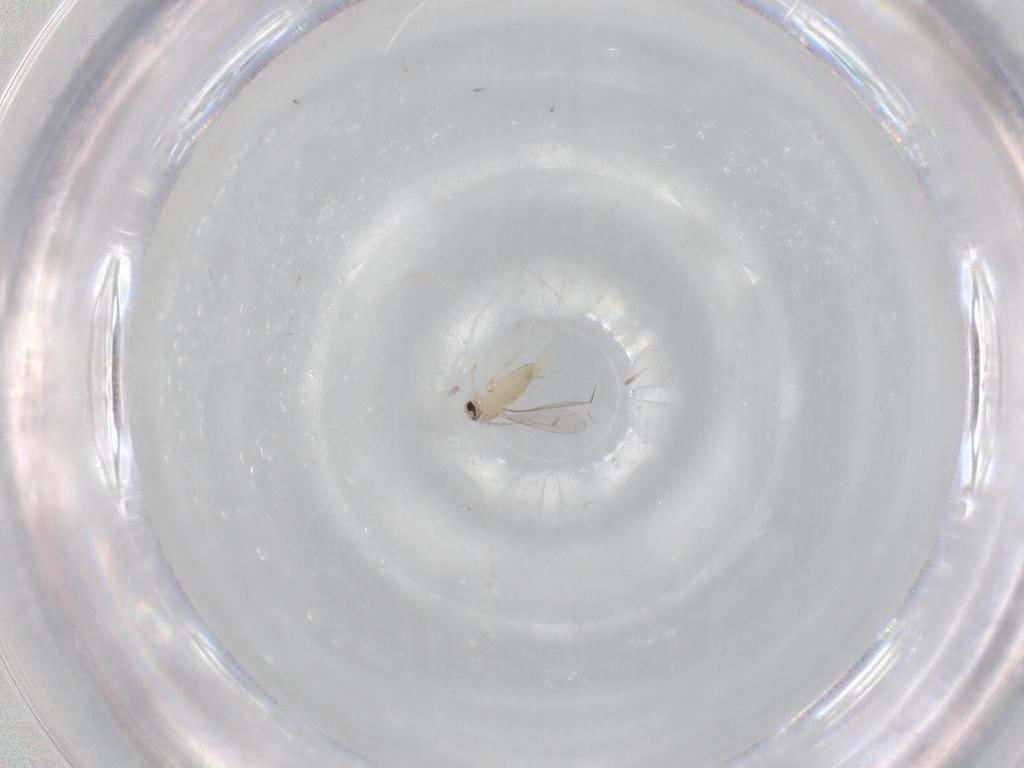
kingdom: Animalia
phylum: Arthropoda
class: Insecta
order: Diptera
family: Cecidomyiidae
